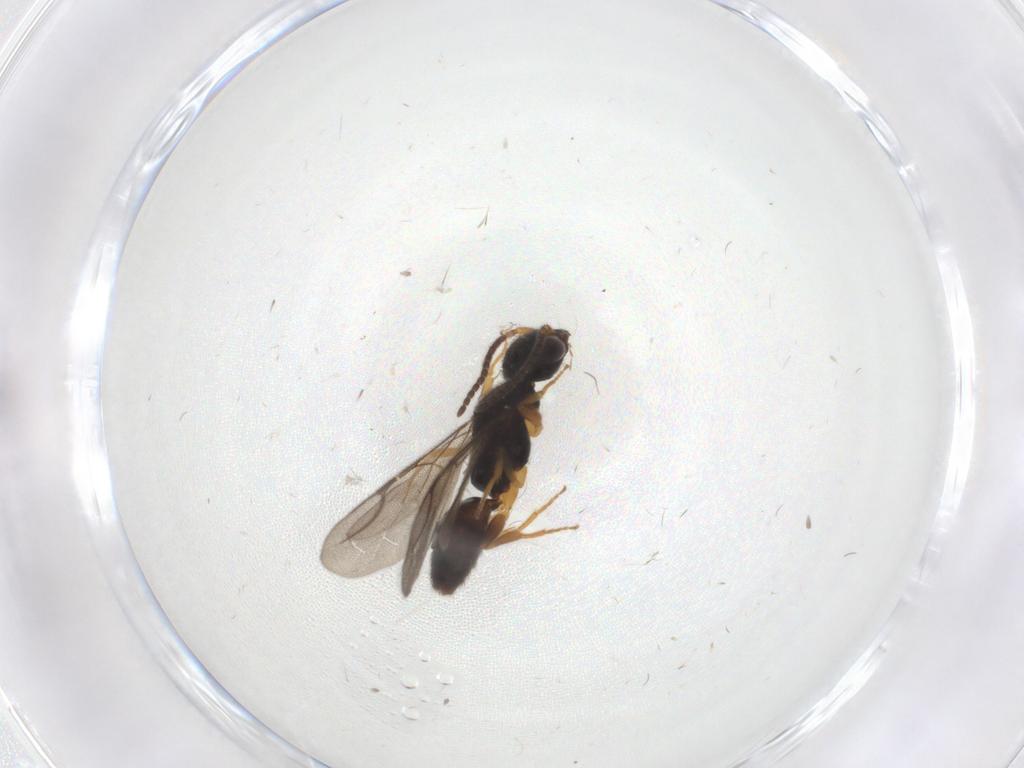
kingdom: Animalia
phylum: Arthropoda
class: Insecta
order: Hymenoptera
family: Bethylidae
